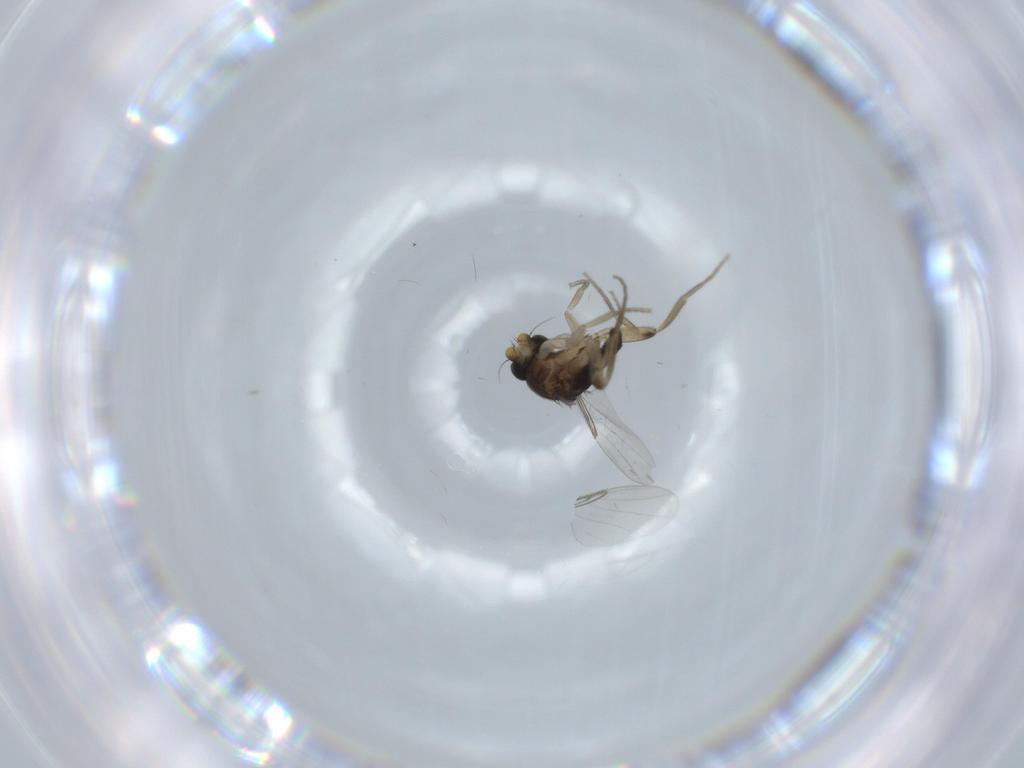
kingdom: Animalia
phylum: Arthropoda
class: Insecta
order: Diptera
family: Phoridae
